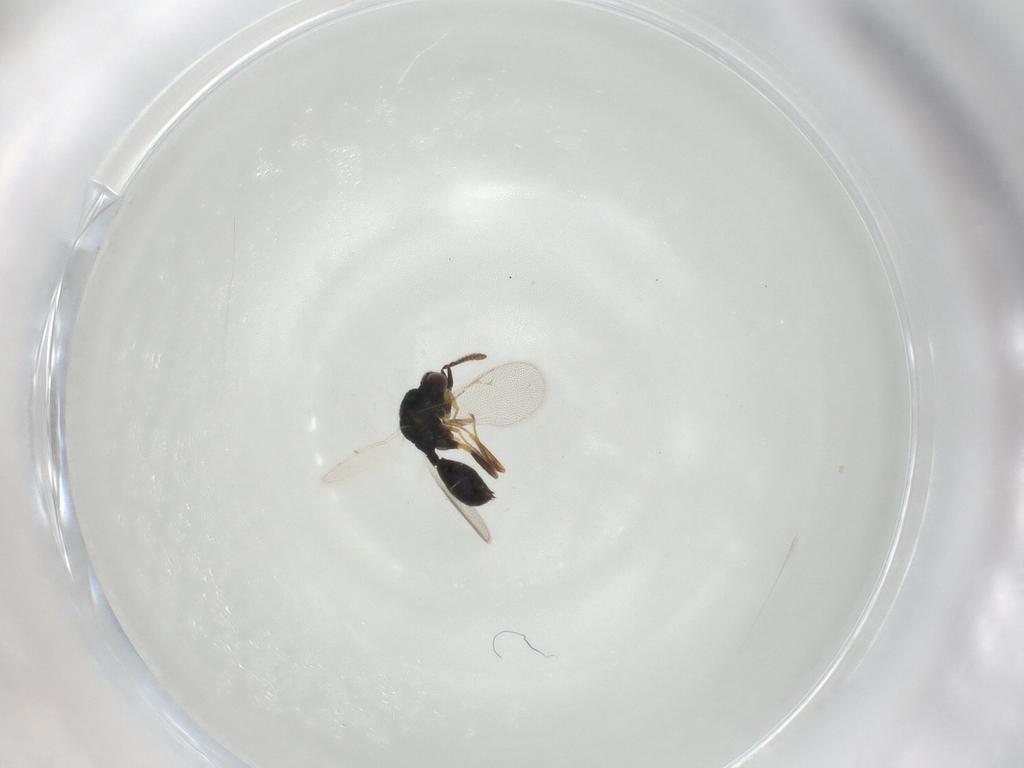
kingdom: Animalia
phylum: Arthropoda
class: Insecta
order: Hymenoptera
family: Chalcidoidea_incertae_sedis
